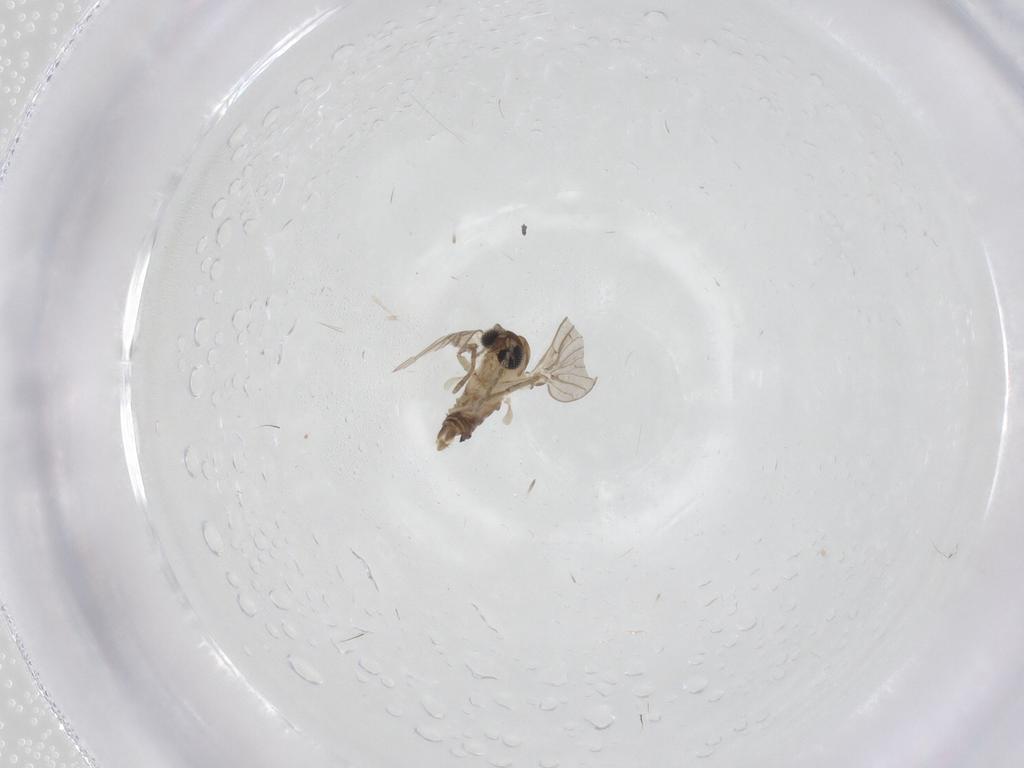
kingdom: Animalia
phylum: Arthropoda
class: Insecta
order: Diptera
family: Psychodidae
